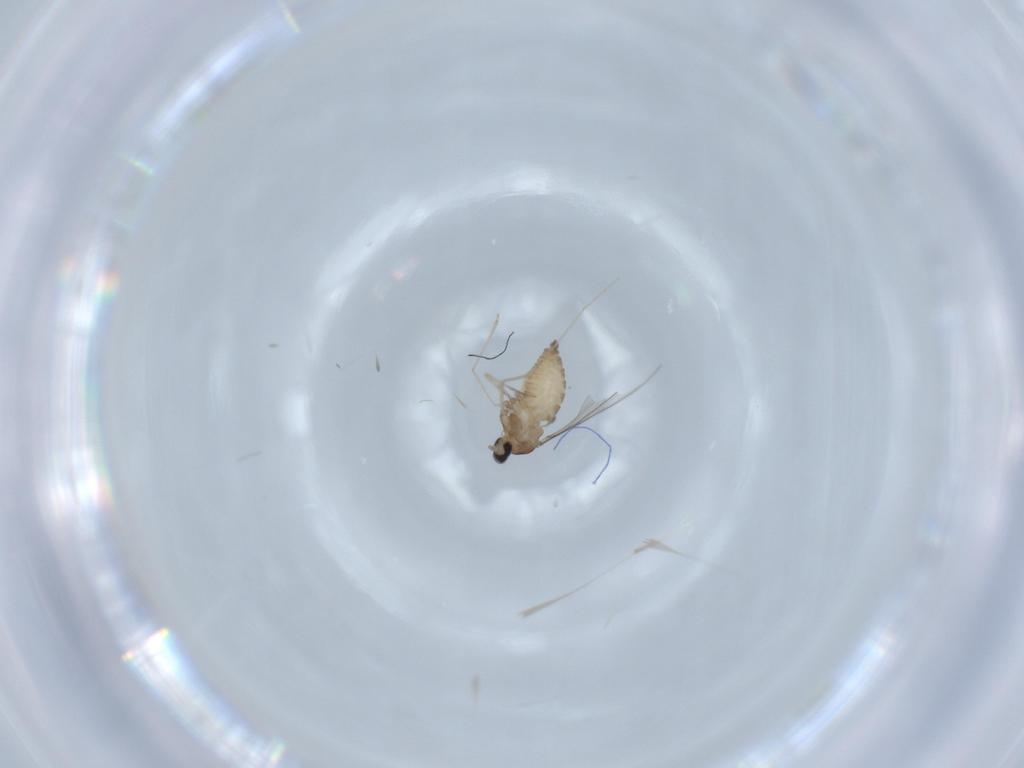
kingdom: Animalia
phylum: Arthropoda
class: Insecta
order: Diptera
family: Cecidomyiidae
